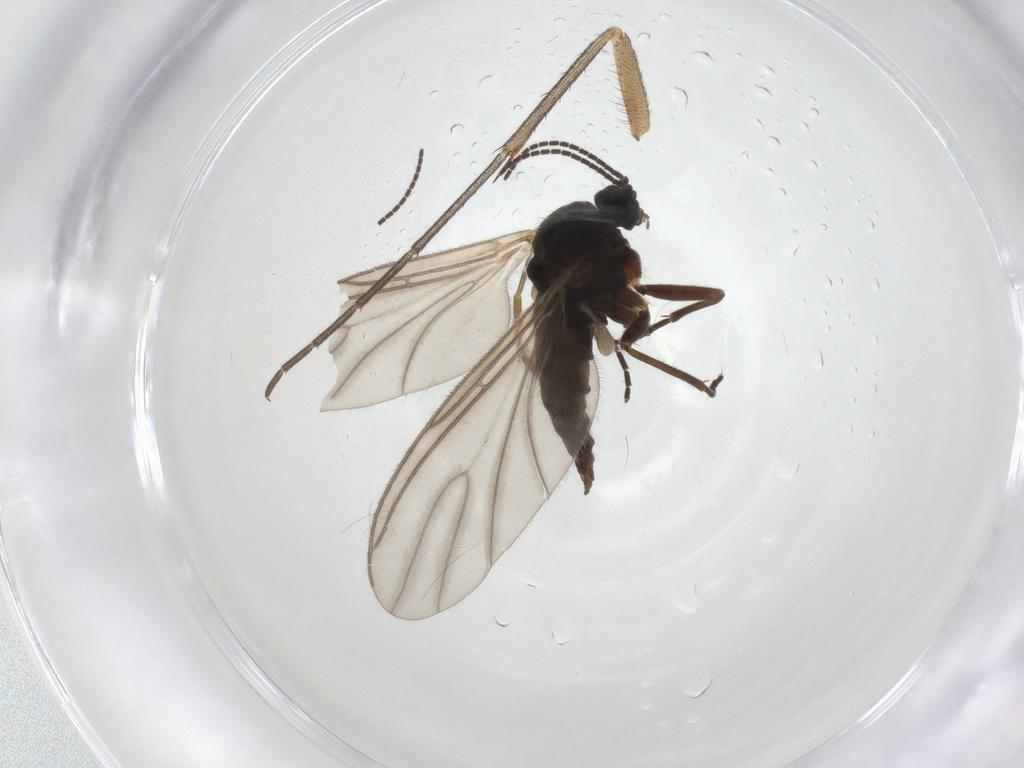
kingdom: Animalia
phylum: Arthropoda
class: Insecta
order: Diptera
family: Sciaridae
